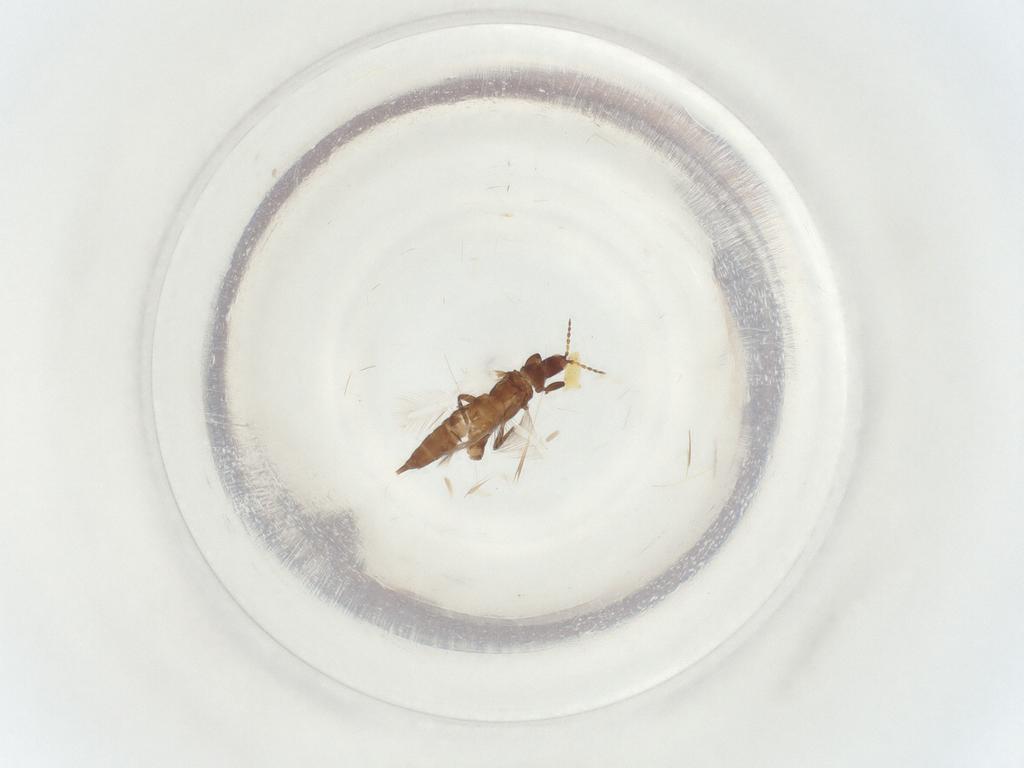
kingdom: Animalia
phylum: Arthropoda
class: Insecta
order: Thysanoptera
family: Phlaeothripidae
